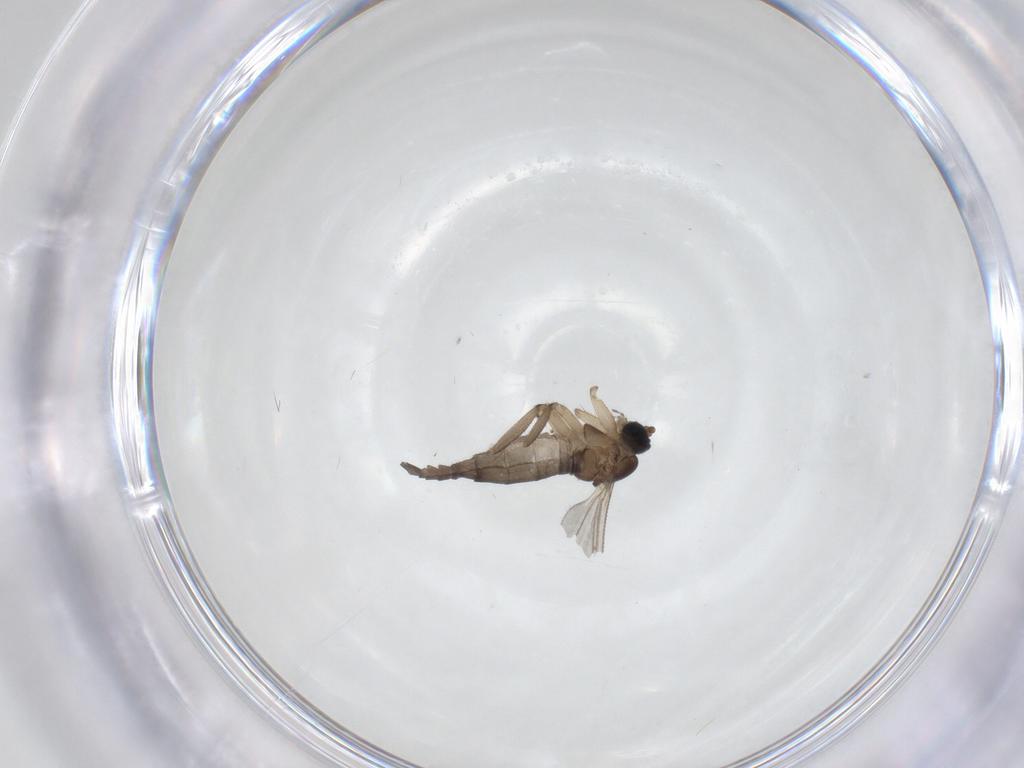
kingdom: Animalia
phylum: Arthropoda
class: Insecta
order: Diptera
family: Sciaridae
